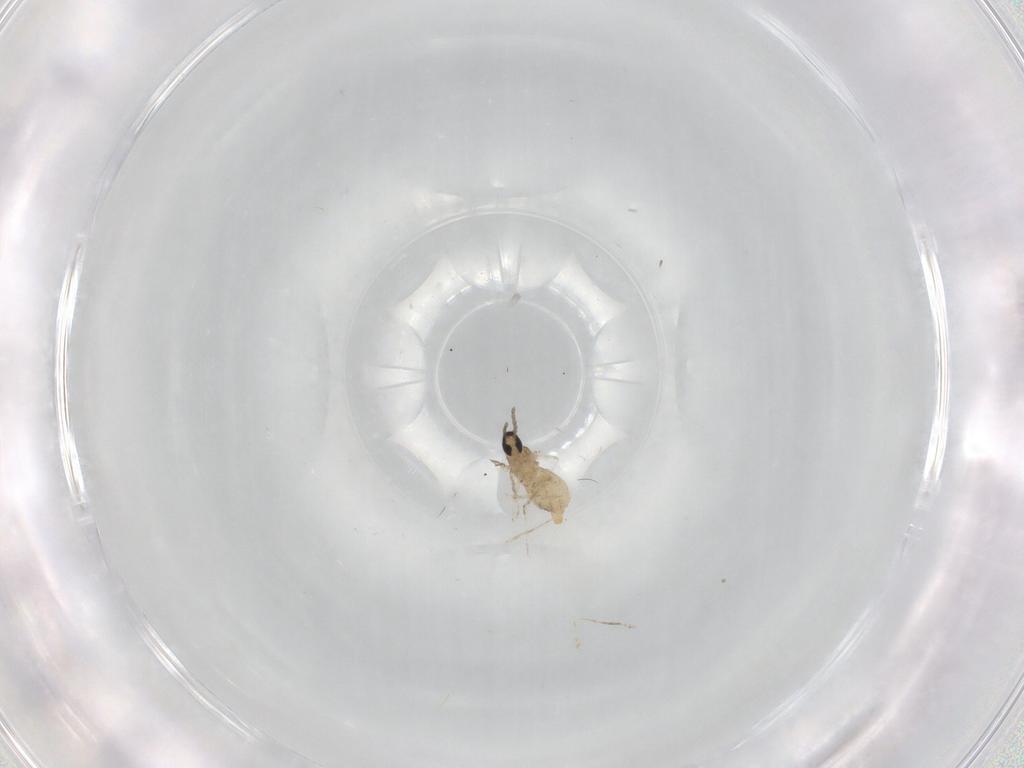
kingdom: Animalia
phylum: Arthropoda
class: Insecta
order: Diptera
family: Cecidomyiidae
